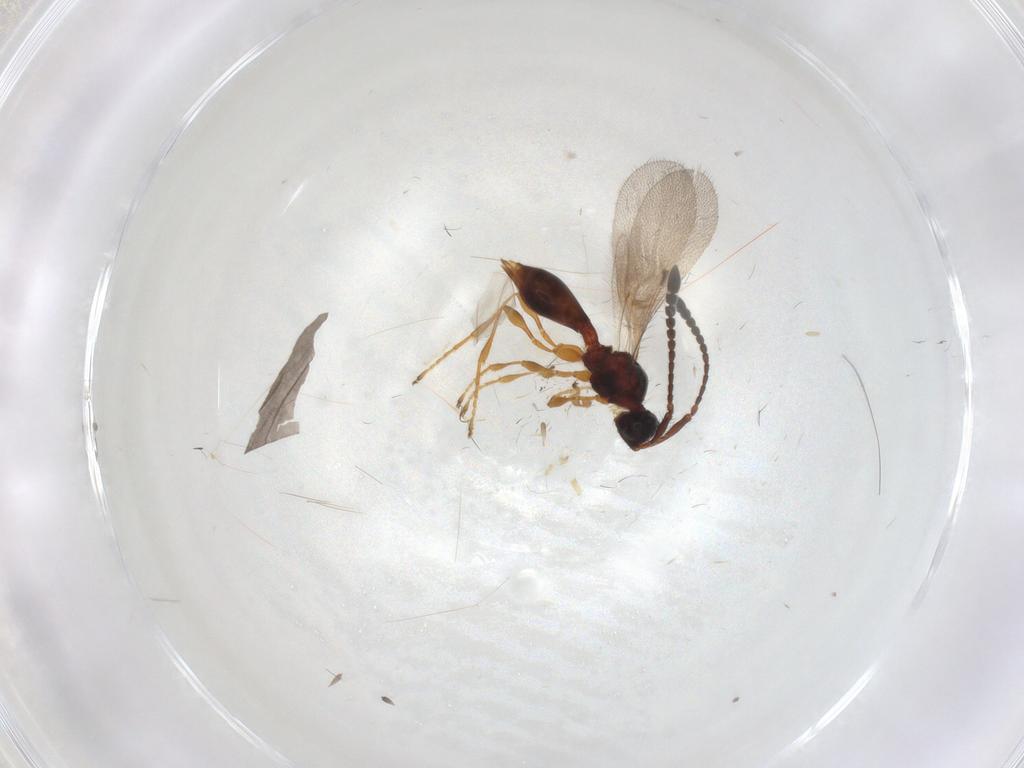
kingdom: Animalia
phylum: Arthropoda
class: Insecta
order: Hymenoptera
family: Diapriidae
